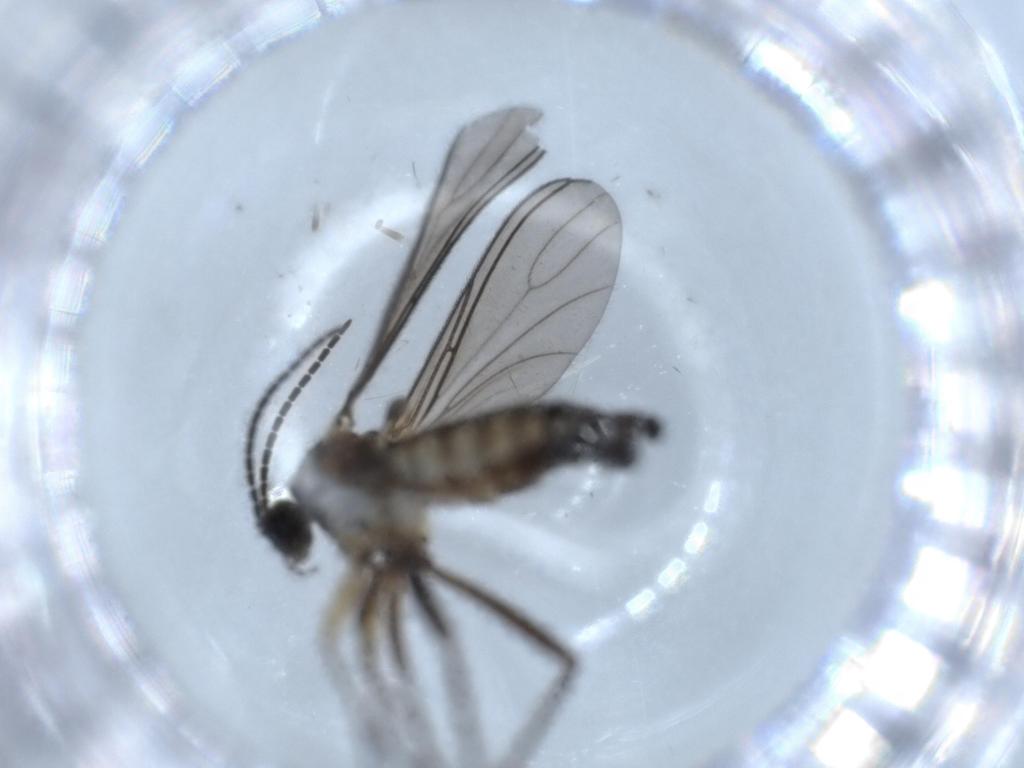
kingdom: Animalia
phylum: Arthropoda
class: Insecta
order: Diptera
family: Sciaridae
